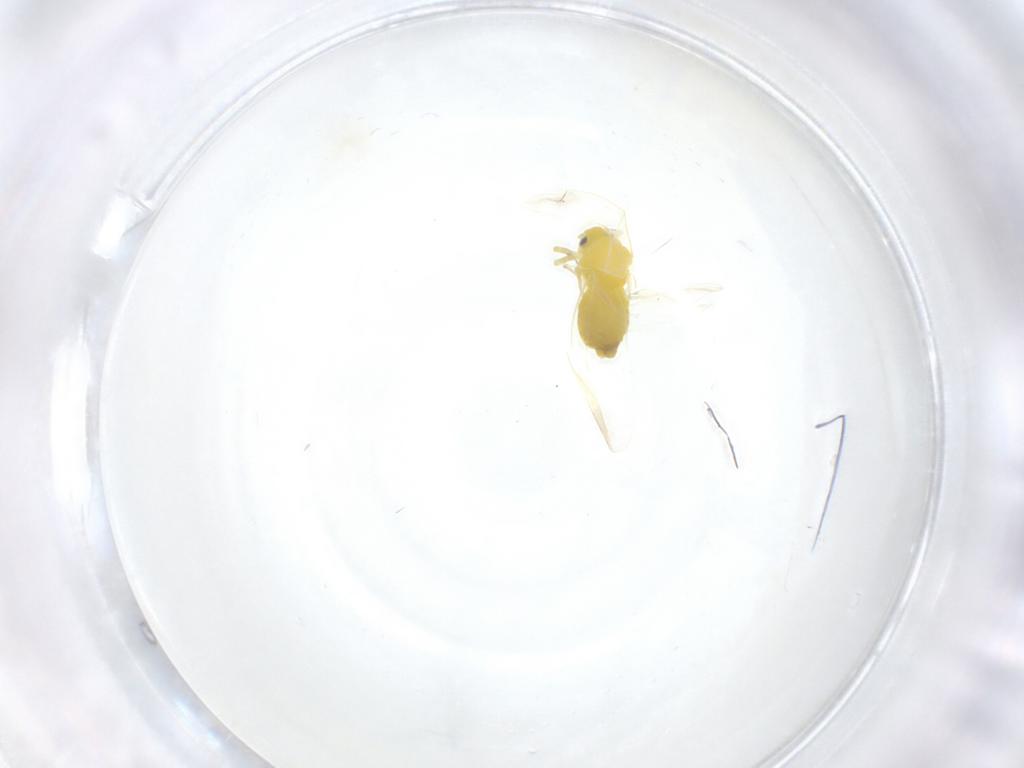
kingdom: Animalia
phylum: Arthropoda
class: Insecta
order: Hemiptera
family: Aleyrodidae
